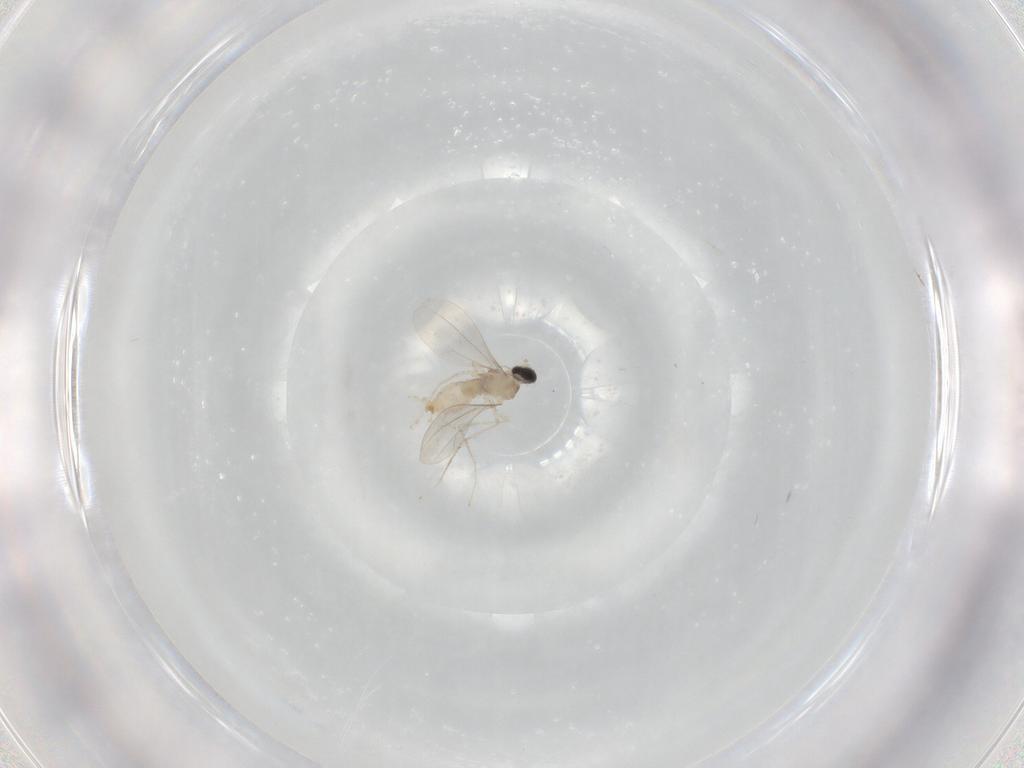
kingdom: Animalia
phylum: Arthropoda
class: Insecta
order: Diptera
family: Cecidomyiidae
